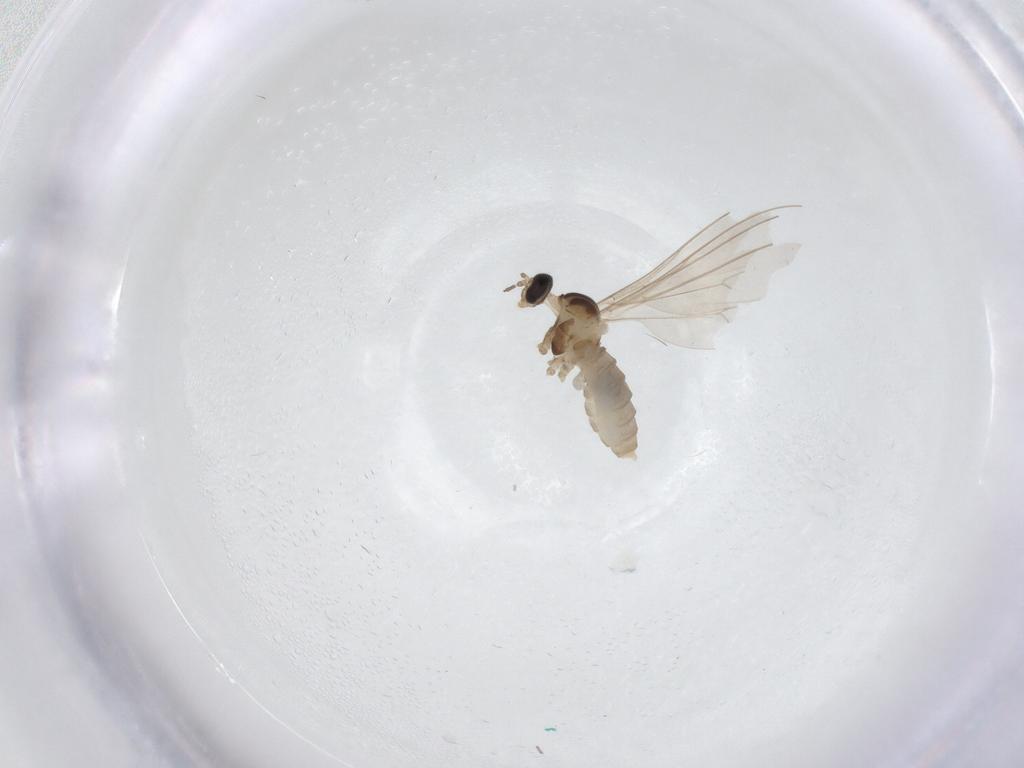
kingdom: Animalia
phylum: Arthropoda
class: Insecta
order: Diptera
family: Cecidomyiidae
